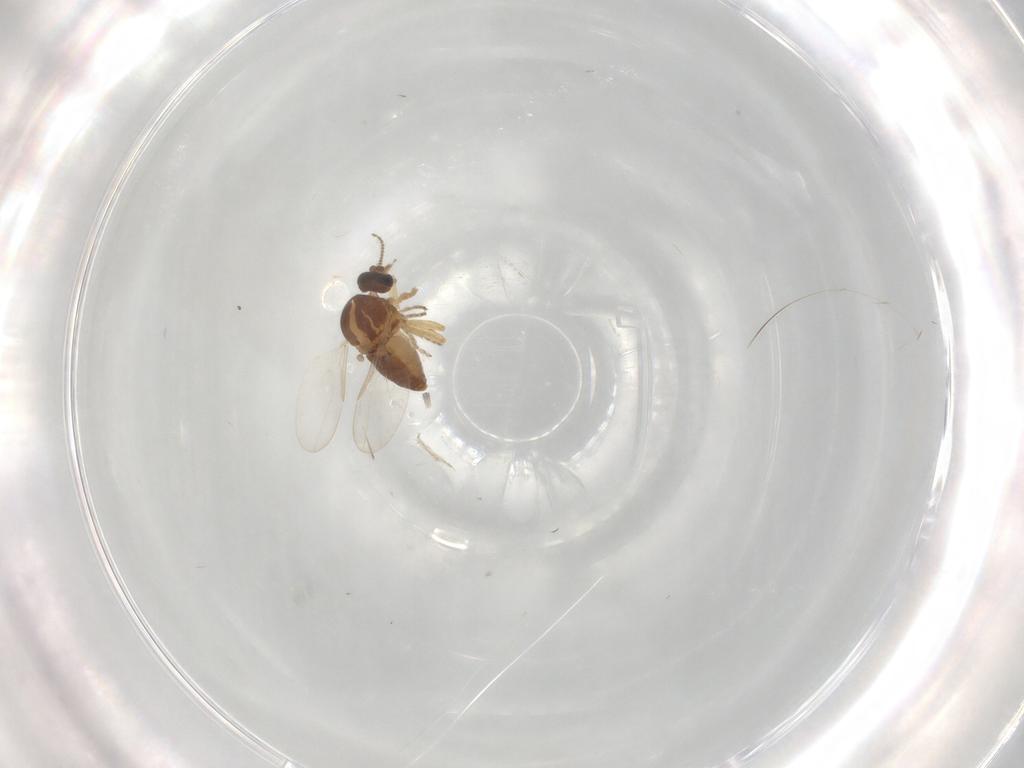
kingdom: Animalia
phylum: Arthropoda
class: Insecta
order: Diptera
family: Ceratopogonidae
